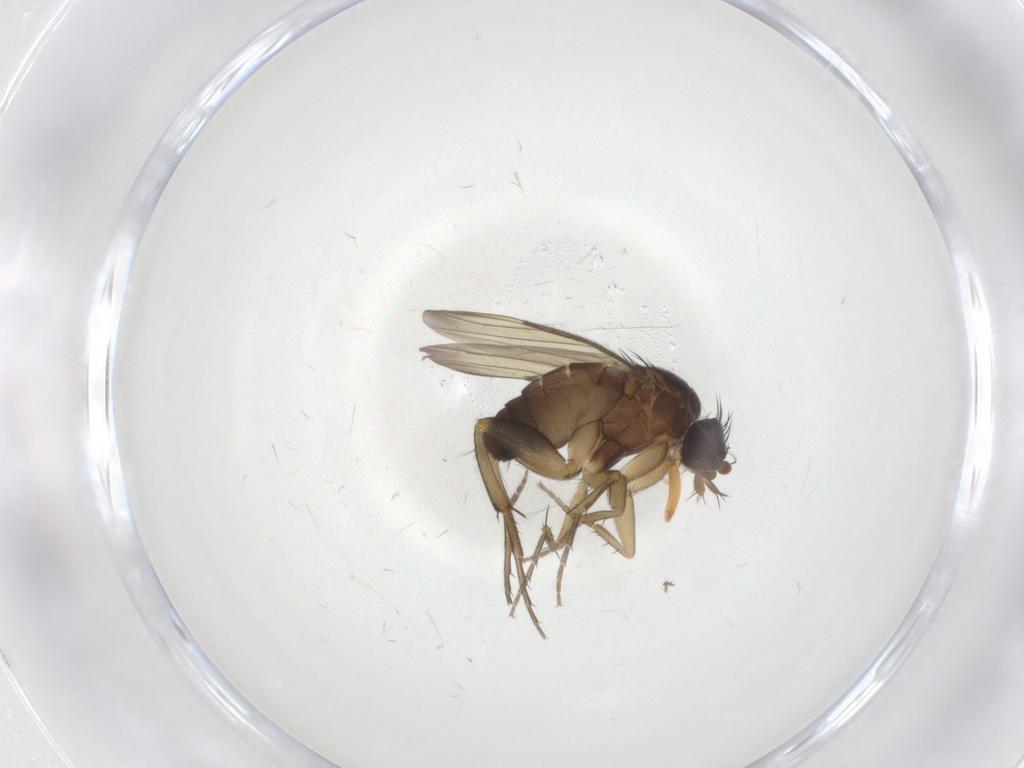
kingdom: Animalia
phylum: Arthropoda
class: Insecta
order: Diptera
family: Phoridae
